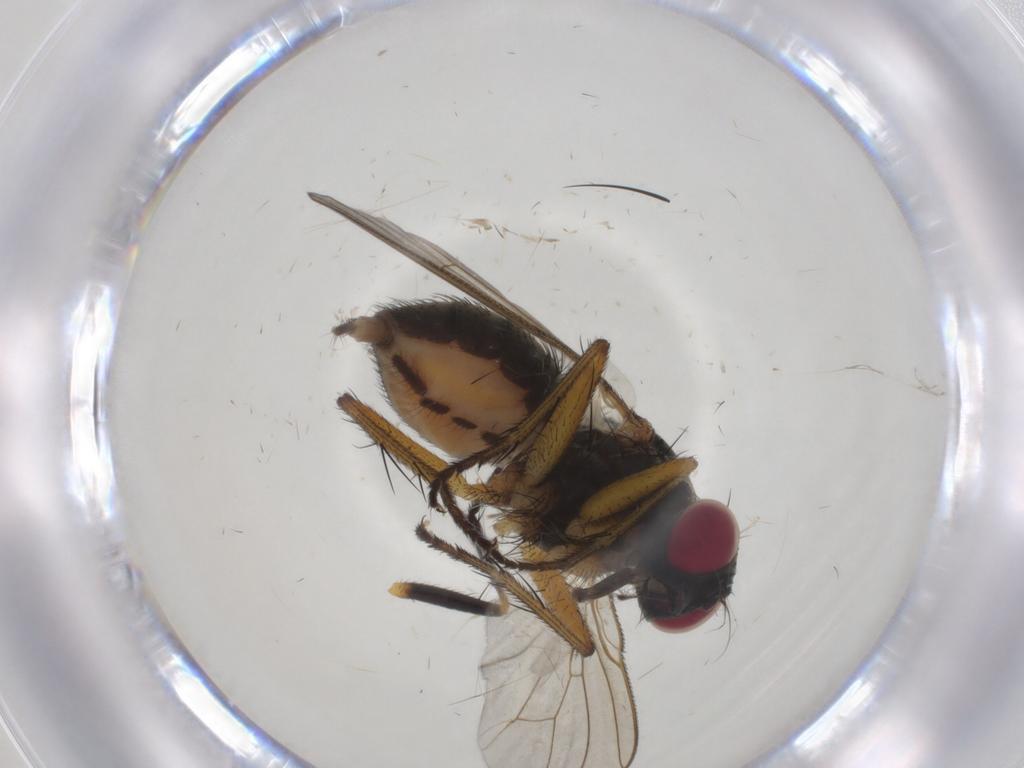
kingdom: Animalia
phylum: Arthropoda
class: Insecta
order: Diptera
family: Muscidae
